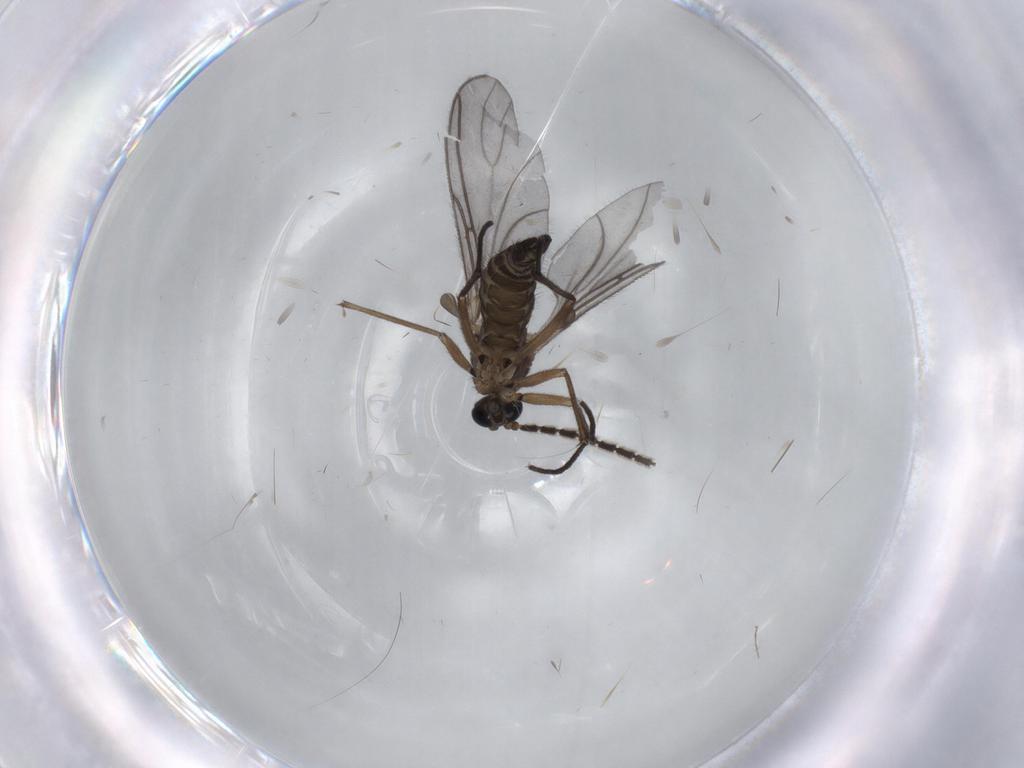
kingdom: Animalia
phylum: Arthropoda
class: Insecta
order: Diptera
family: Chironomidae
